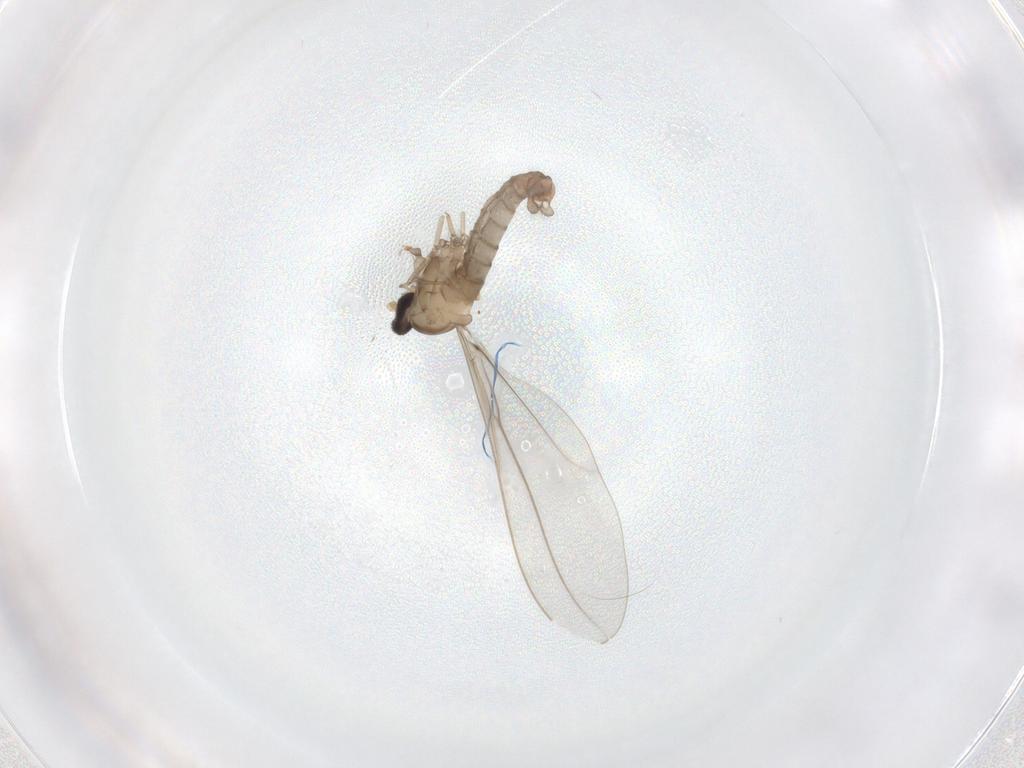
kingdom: Animalia
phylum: Arthropoda
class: Insecta
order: Diptera
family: Cecidomyiidae
